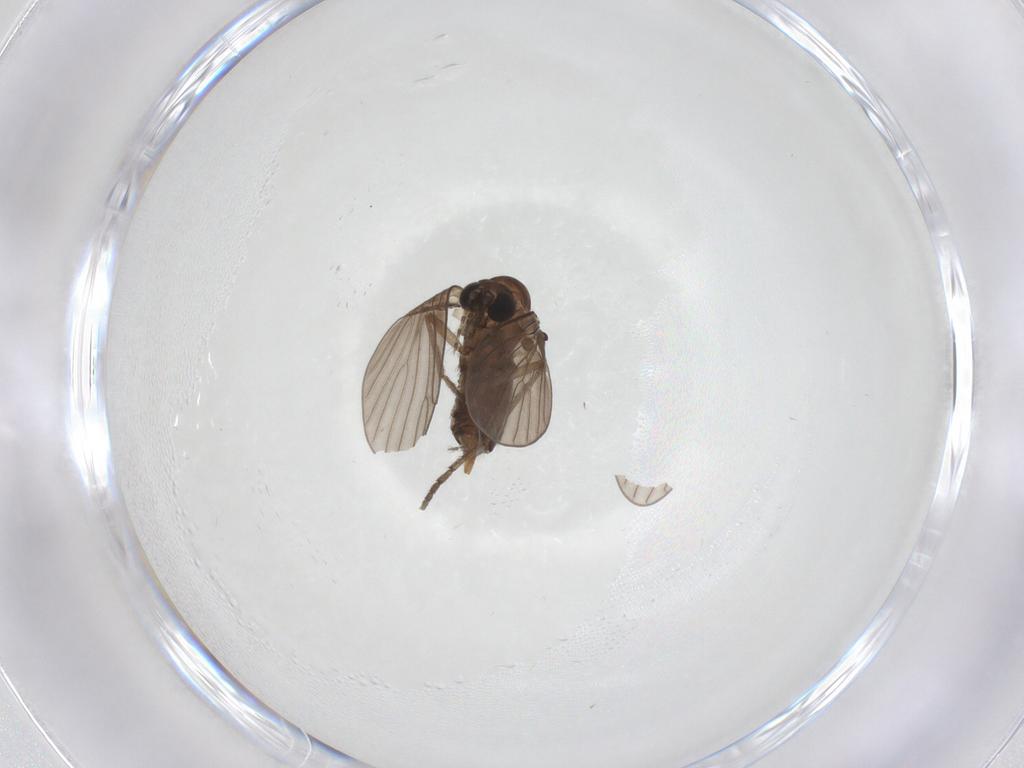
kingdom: Animalia
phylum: Arthropoda
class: Insecta
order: Diptera
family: Psychodidae
